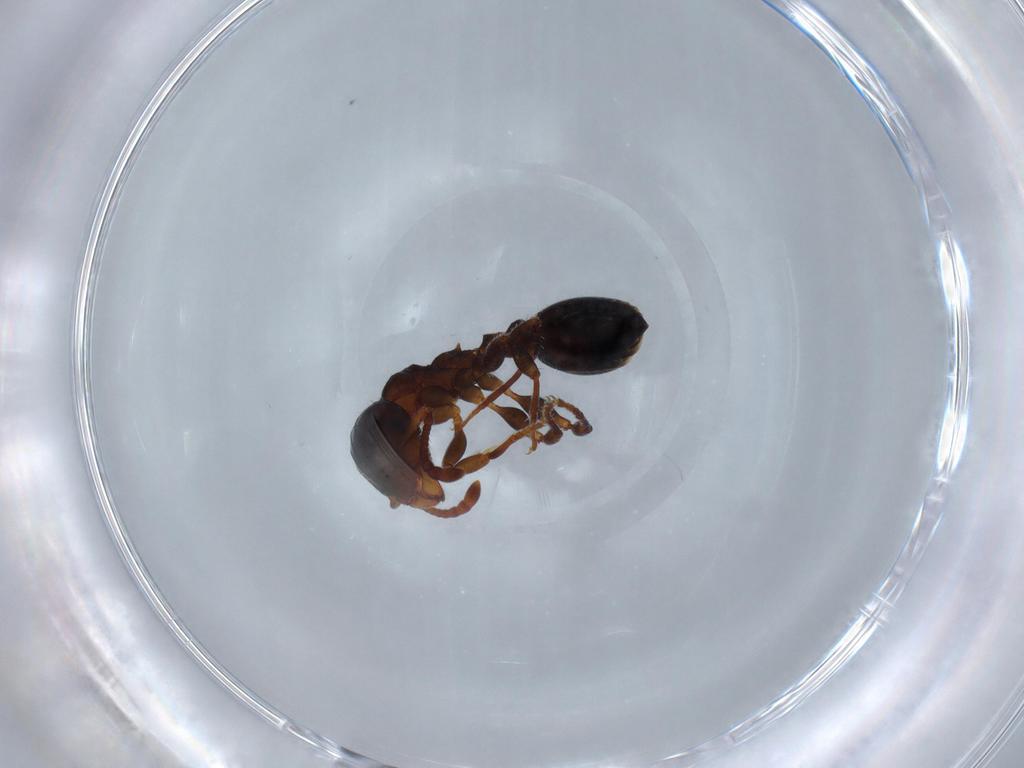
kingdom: Animalia
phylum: Arthropoda
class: Insecta
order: Hymenoptera
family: Formicidae
